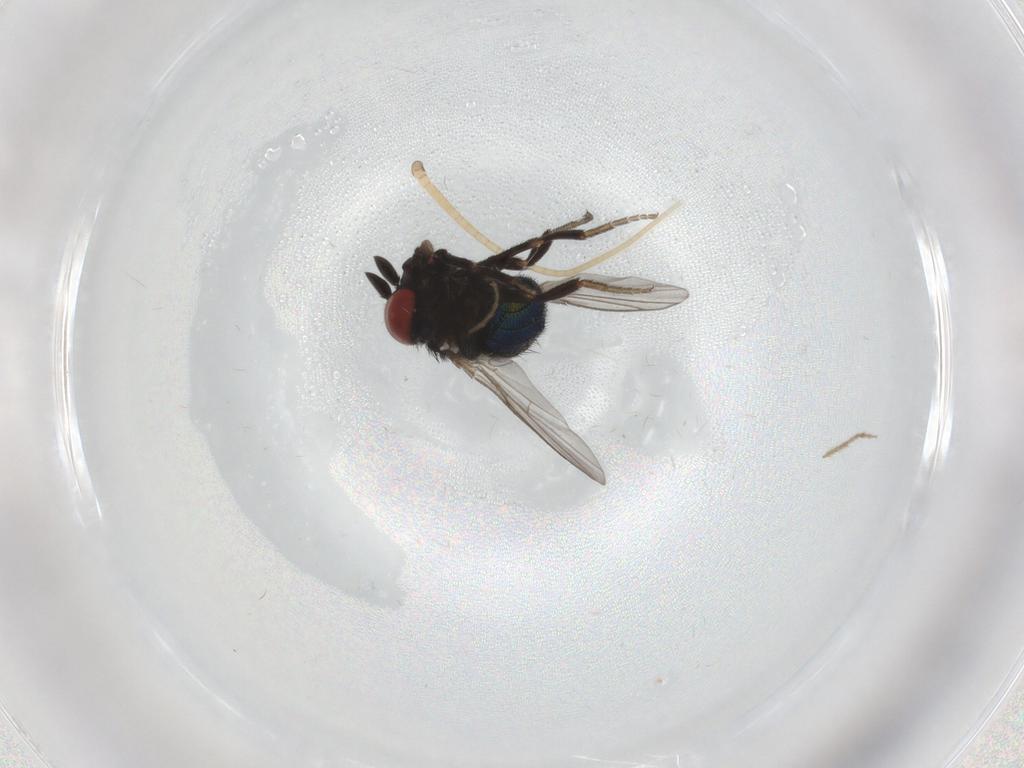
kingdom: Animalia
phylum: Arthropoda
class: Insecta
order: Diptera
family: Cryptochetidae
